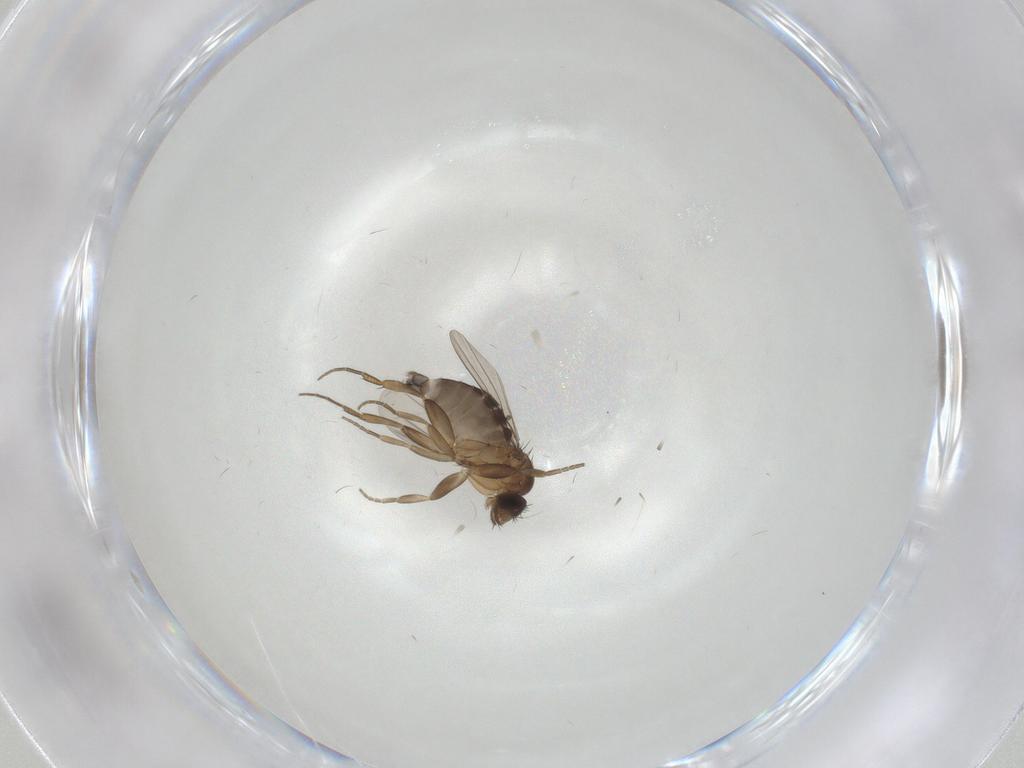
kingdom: Animalia
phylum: Arthropoda
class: Insecta
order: Diptera
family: Phoridae
